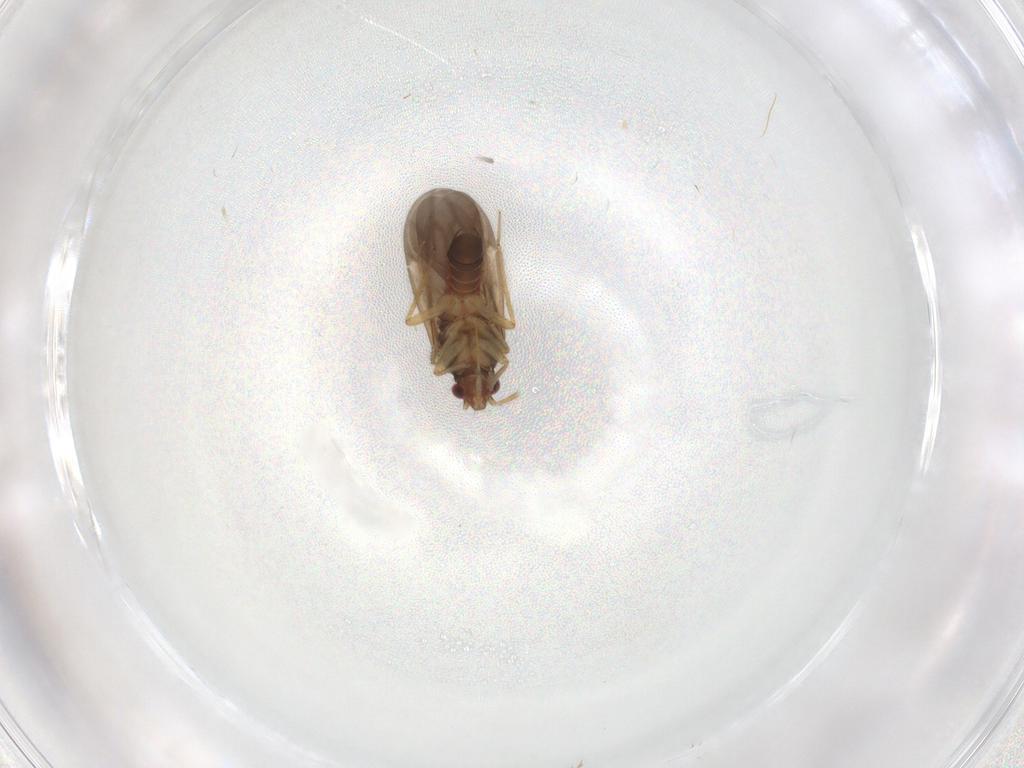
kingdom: Animalia
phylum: Arthropoda
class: Insecta
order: Hemiptera
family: Ceratocombidae
